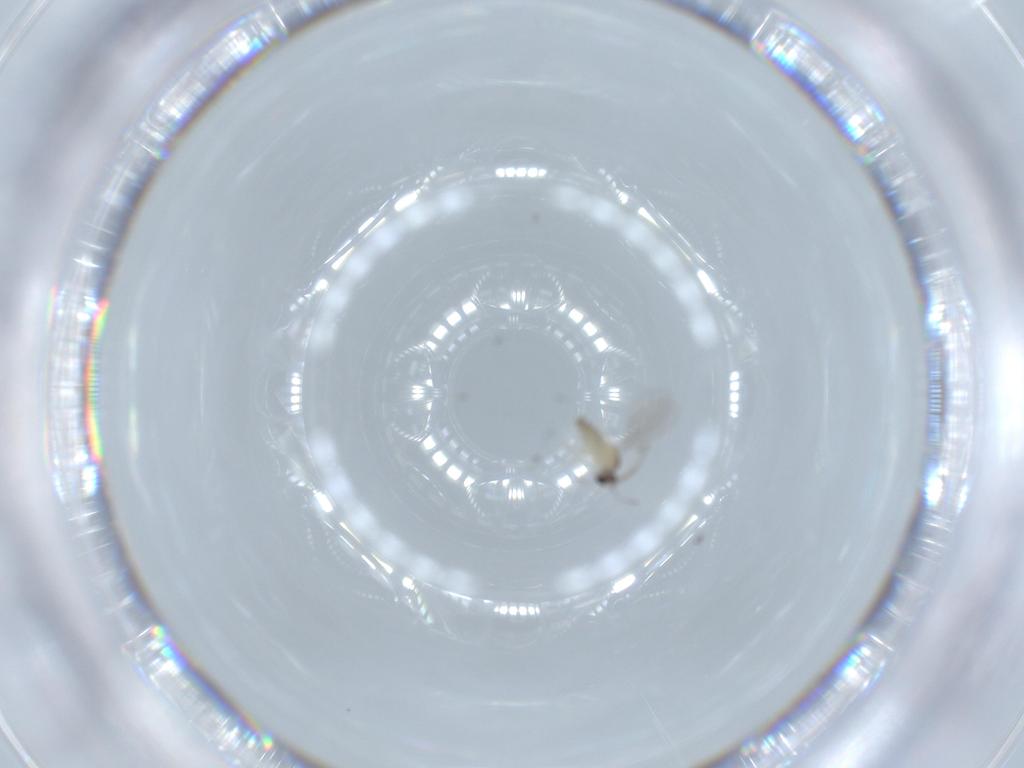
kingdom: Animalia
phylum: Arthropoda
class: Insecta
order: Diptera
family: Cecidomyiidae
